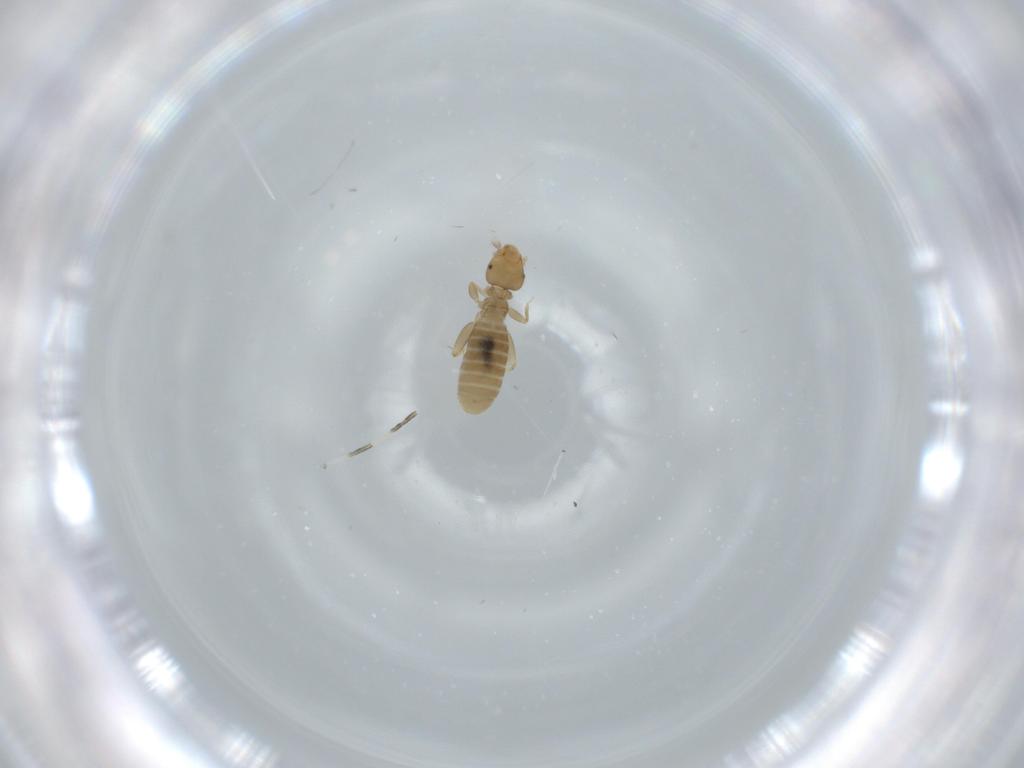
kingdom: Animalia
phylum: Arthropoda
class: Insecta
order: Psocodea
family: Liposcelididae
